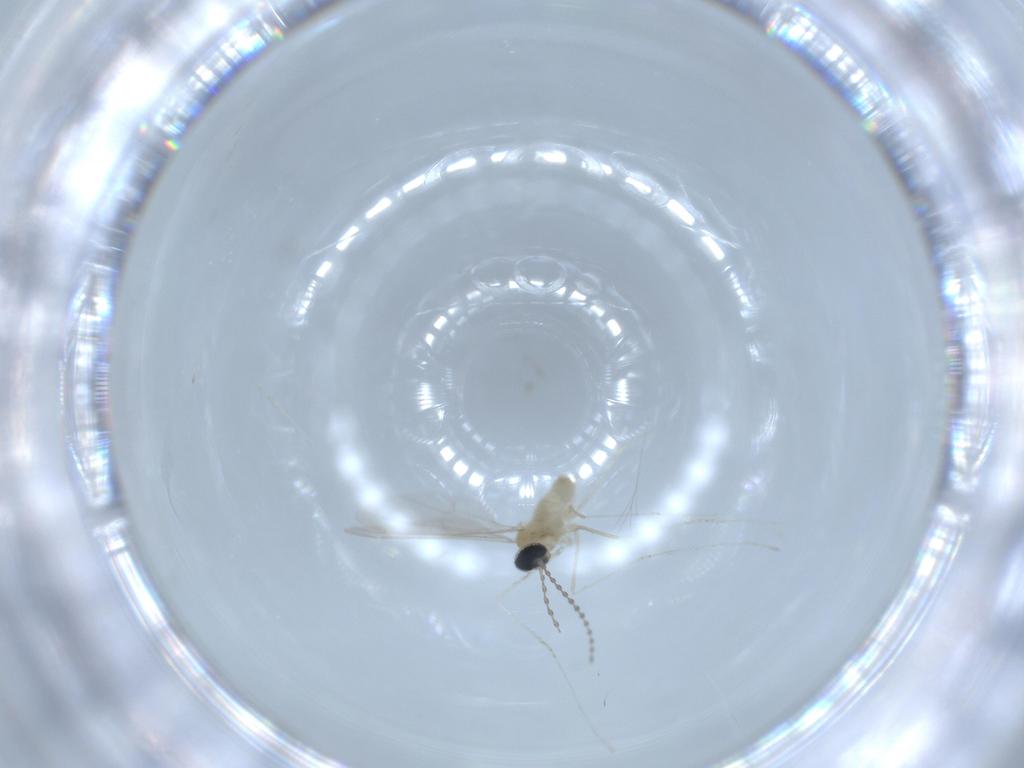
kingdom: Animalia
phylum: Arthropoda
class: Insecta
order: Diptera
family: Cecidomyiidae
